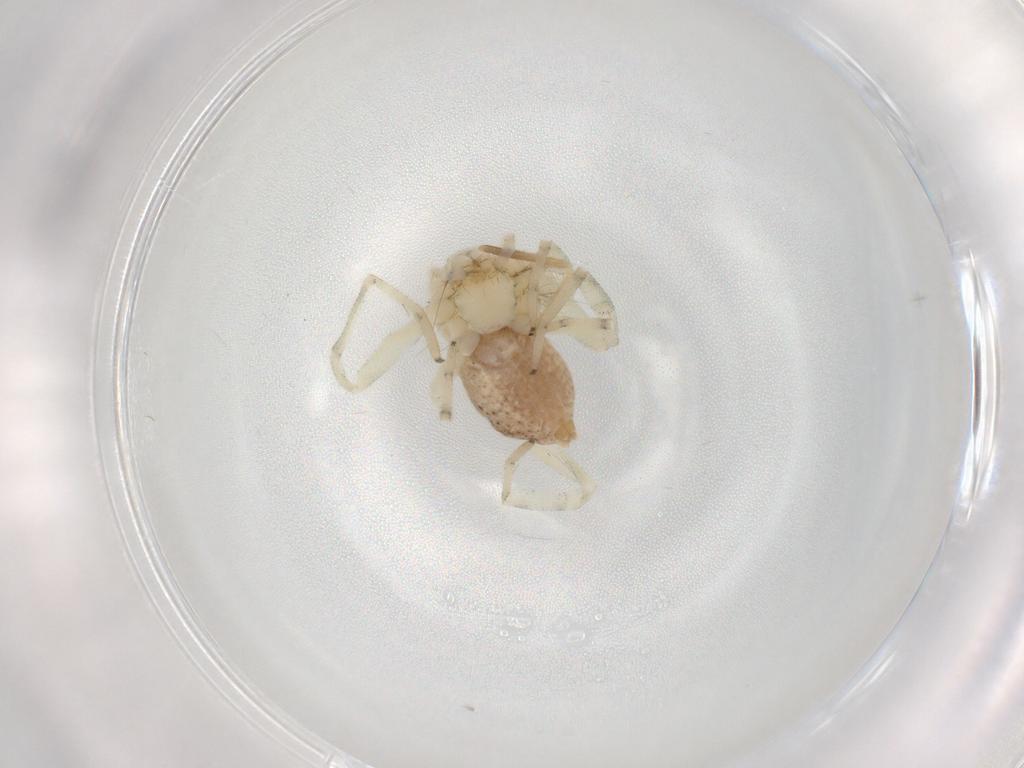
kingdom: Animalia
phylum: Arthropoda
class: Arachnida
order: Araneae
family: Philodromidae
